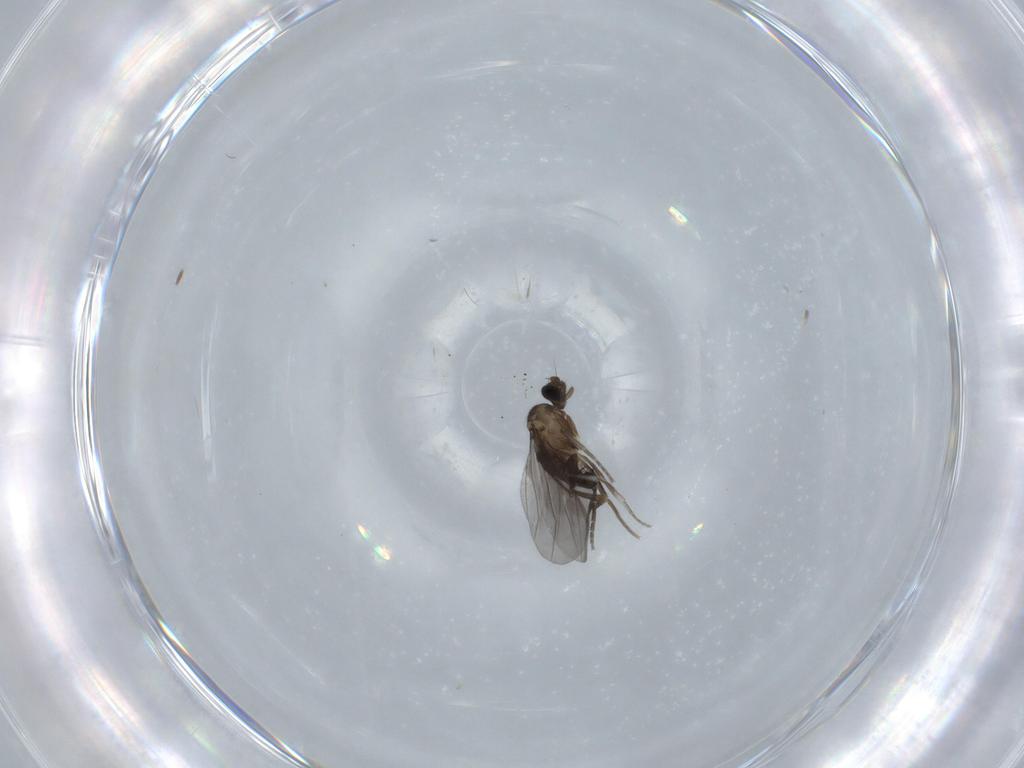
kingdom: Animalia
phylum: Arthropoda
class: Insecta
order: Diptera
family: Phoridae
